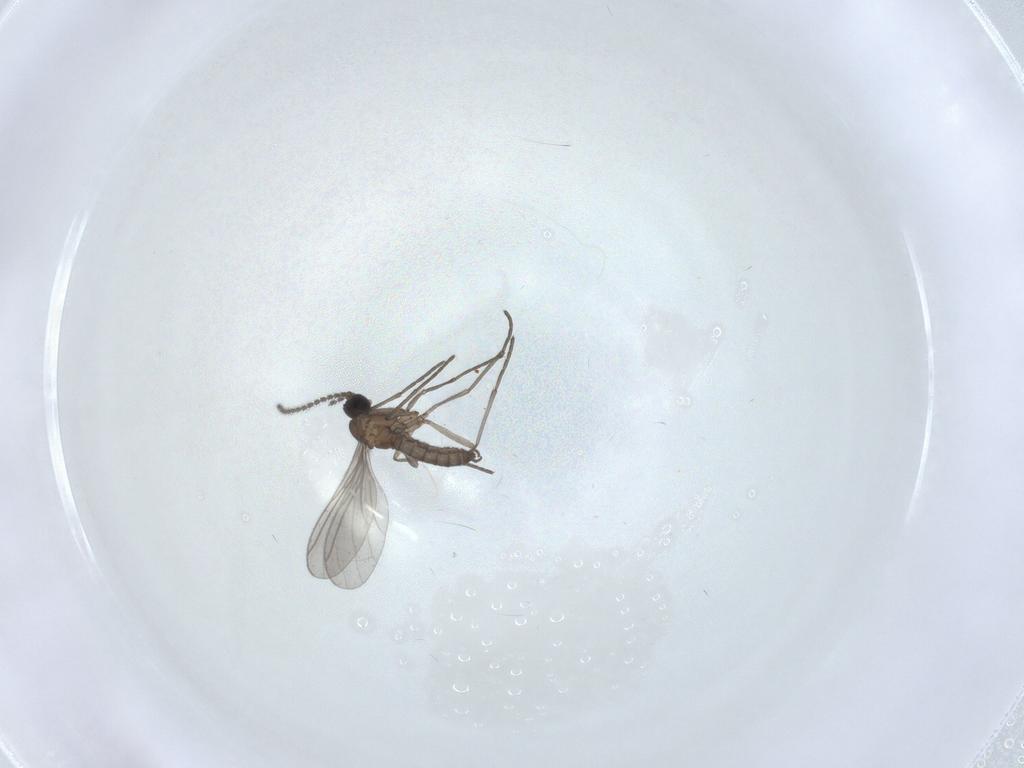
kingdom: Animalia
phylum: Arthropoda
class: Insecta
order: Diptera
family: Sciaridae
